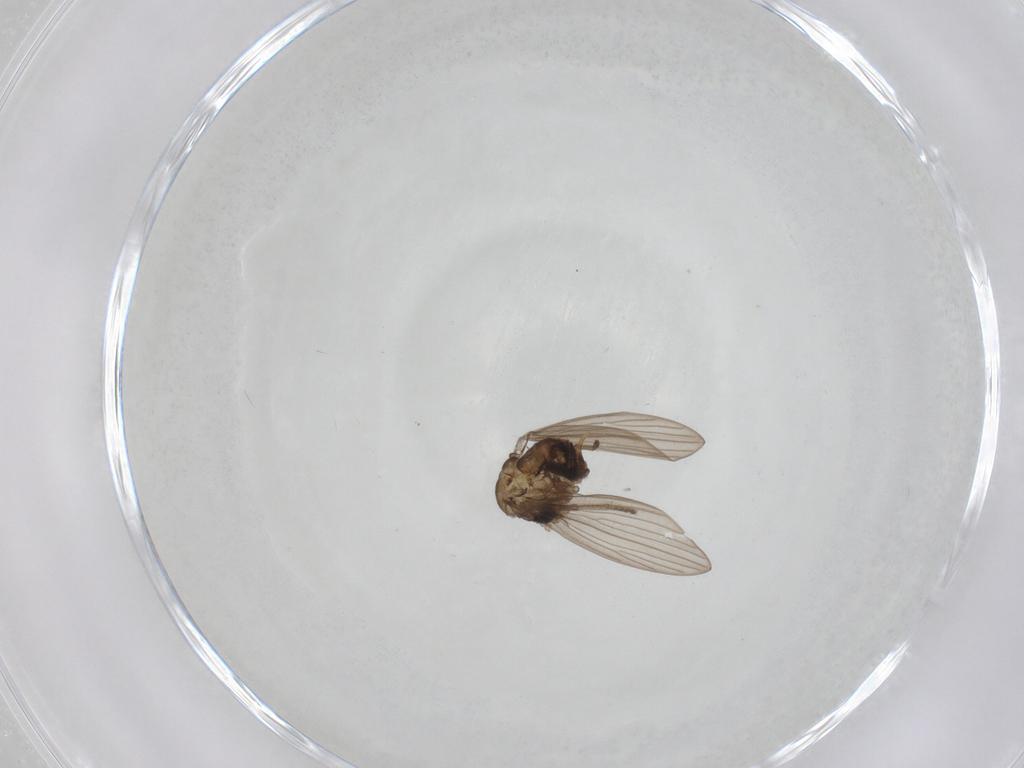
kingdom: Animalia
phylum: Arthropoda
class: Insecta
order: Diptera
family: Psychodidae
